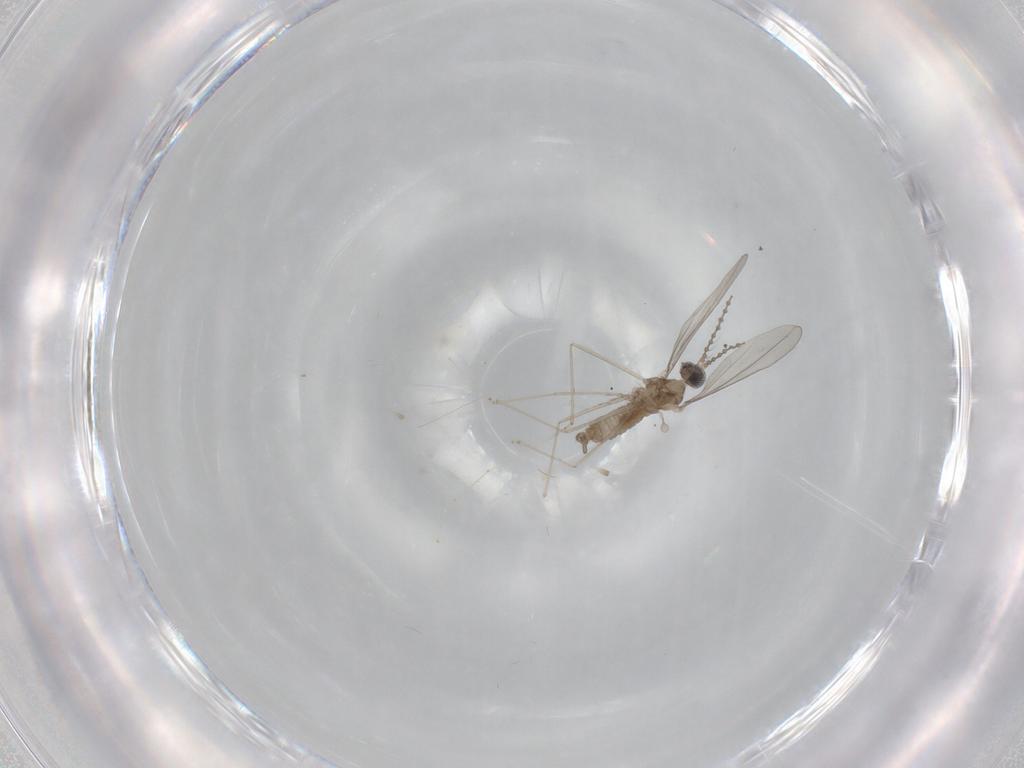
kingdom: Animalia
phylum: Arthropoda
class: Insecta
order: Diptera
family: Cecidomyiidae
